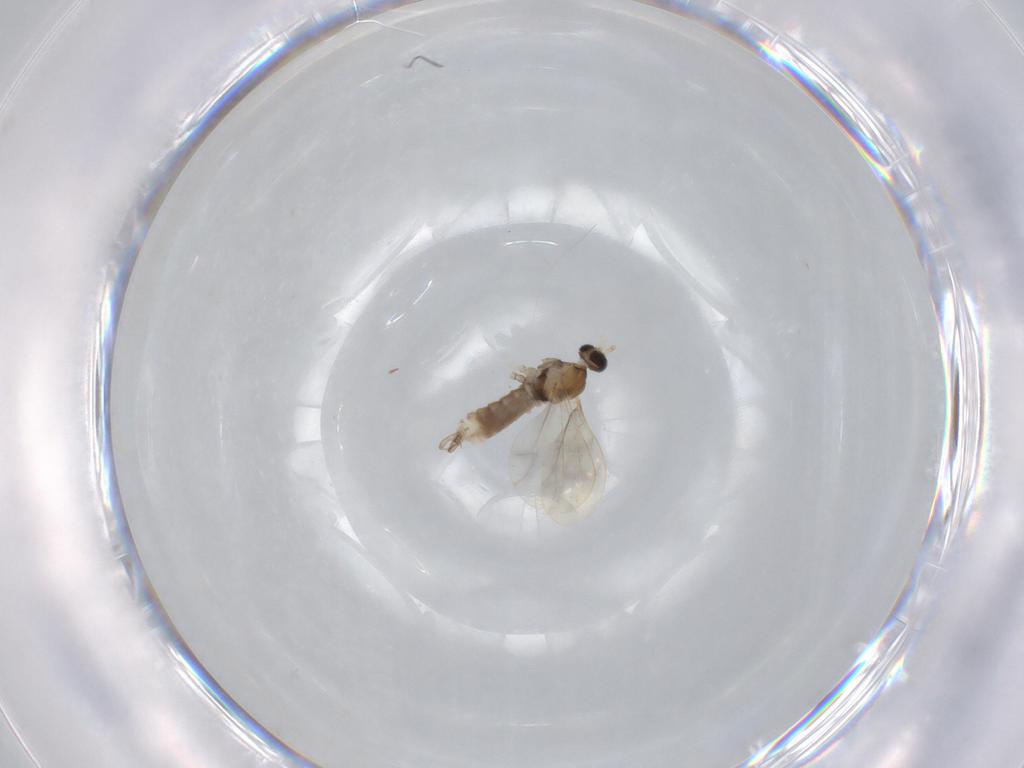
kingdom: Animalia
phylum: Arthropoda
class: Insecta
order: Diptera
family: Cecidomyiidae
